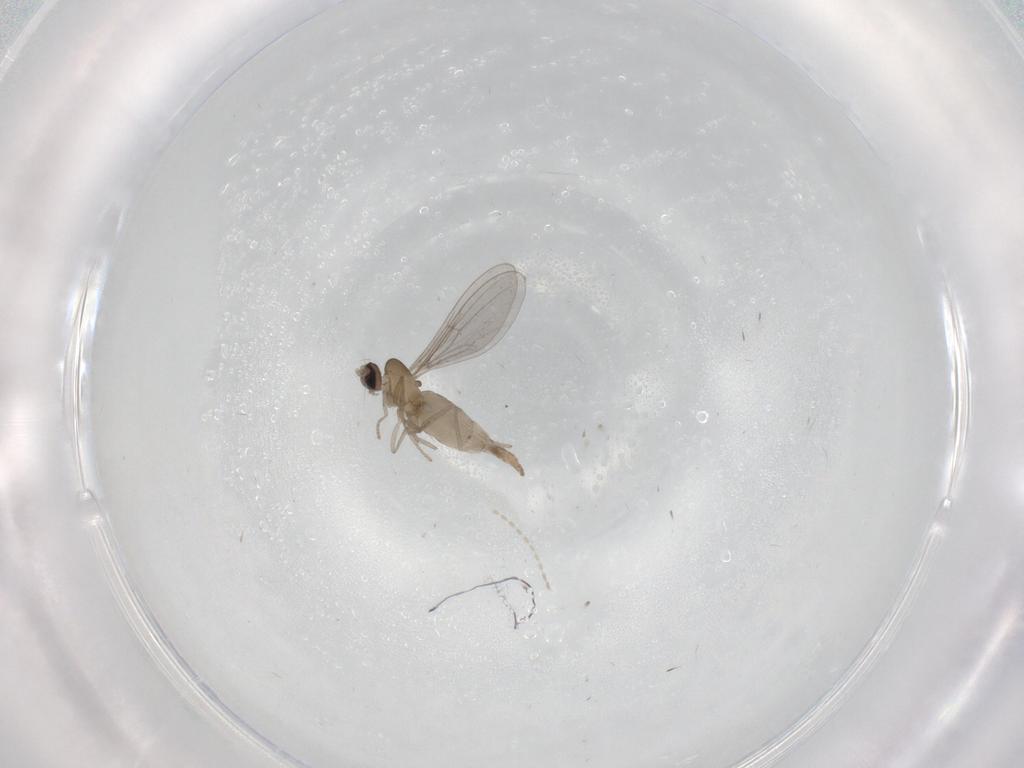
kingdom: Animalia
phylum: Arthropoda
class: Insecta
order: Diptera
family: Cecidomyiidae
